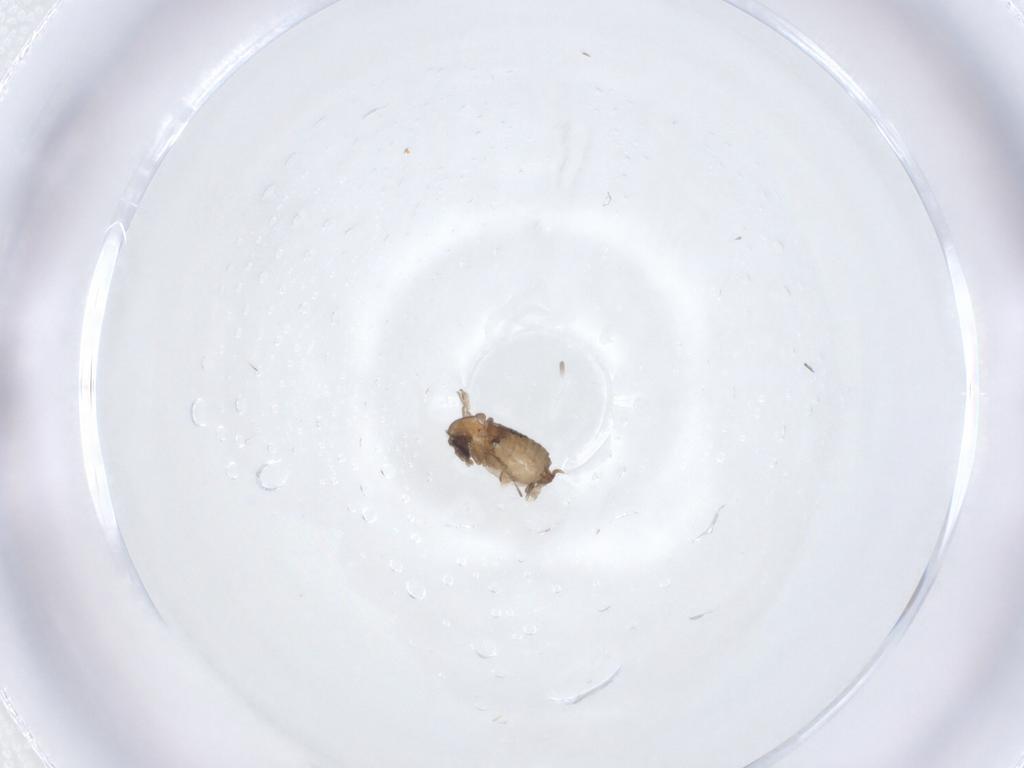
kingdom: Animalia
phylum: Arthropoda
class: Insecta
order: Diptera
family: Psychodidae
